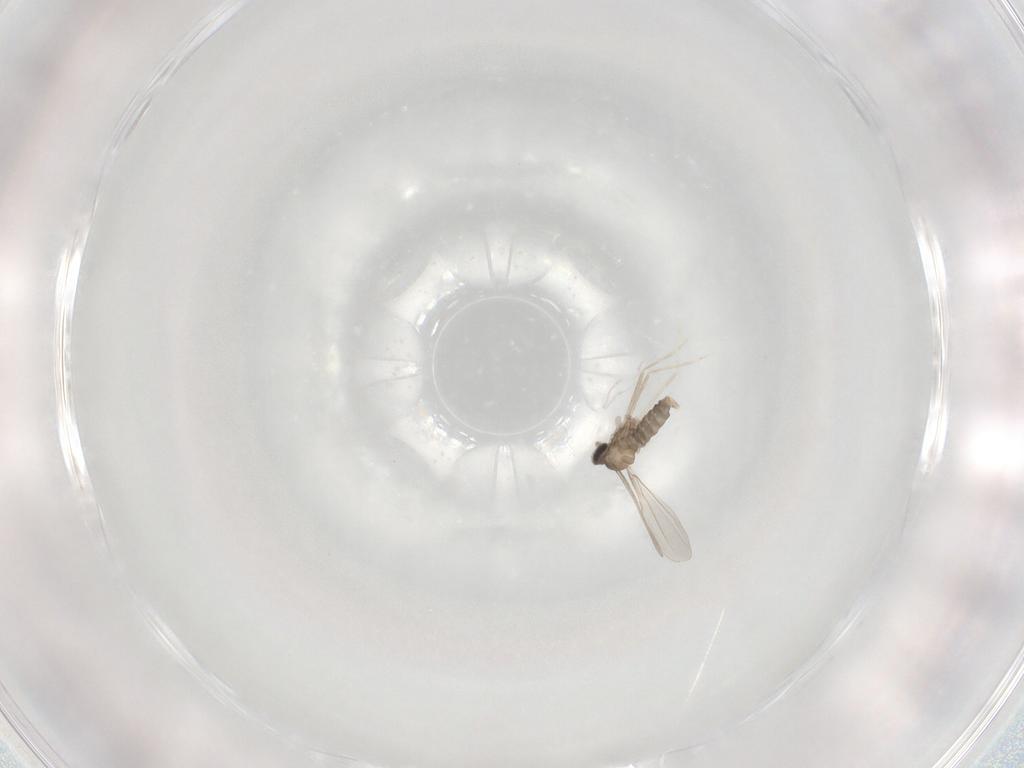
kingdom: Animalia
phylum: Arthropoda
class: Insecta
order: Diptera
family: Syrphidae
